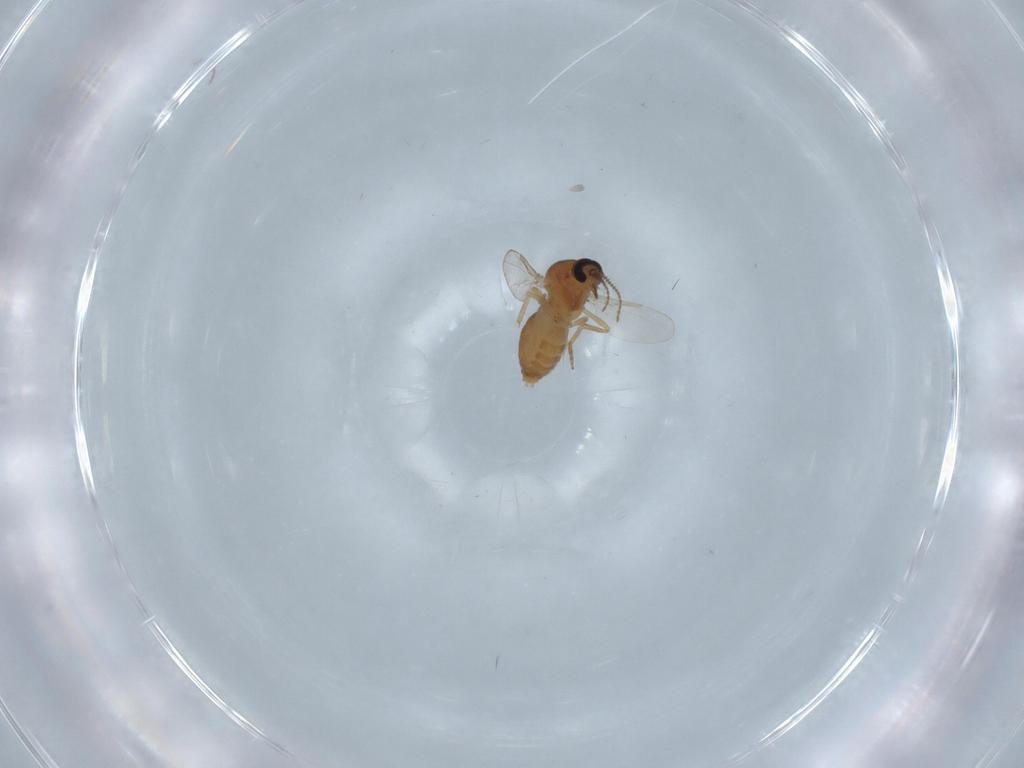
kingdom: Animalia
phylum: Arthropoda
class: Insecta
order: Diptera
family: Ceratopogonidae
